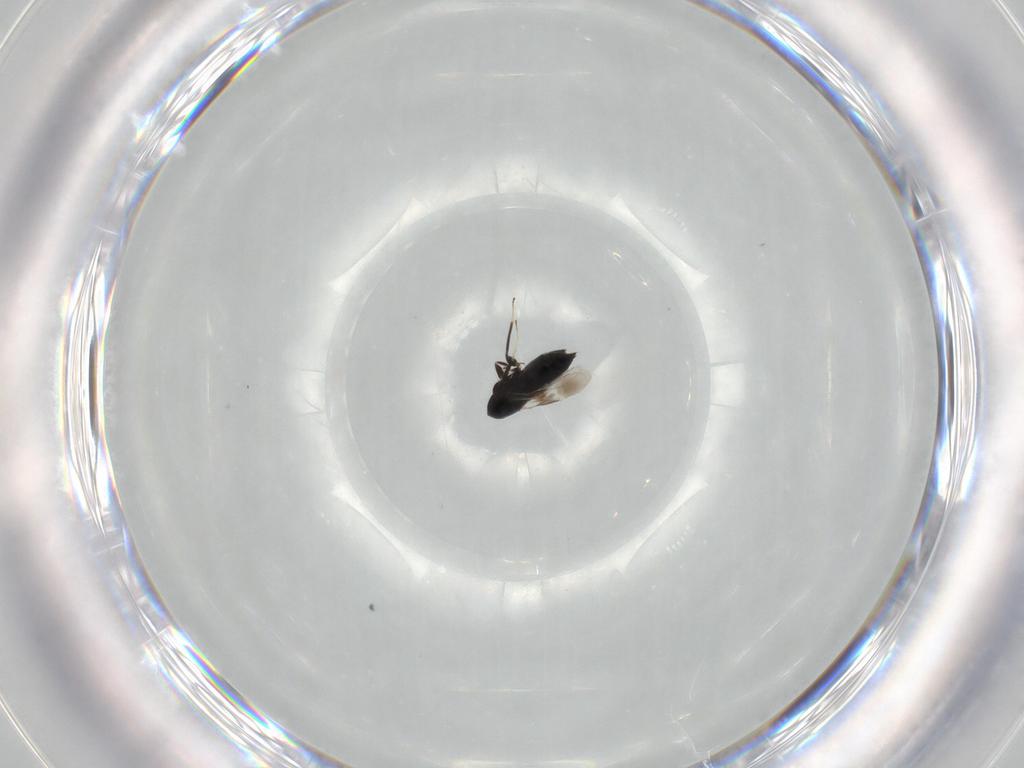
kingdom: Animalia
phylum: Arthropoda
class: Insecta
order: Hymenoptera
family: Signiphoridae
